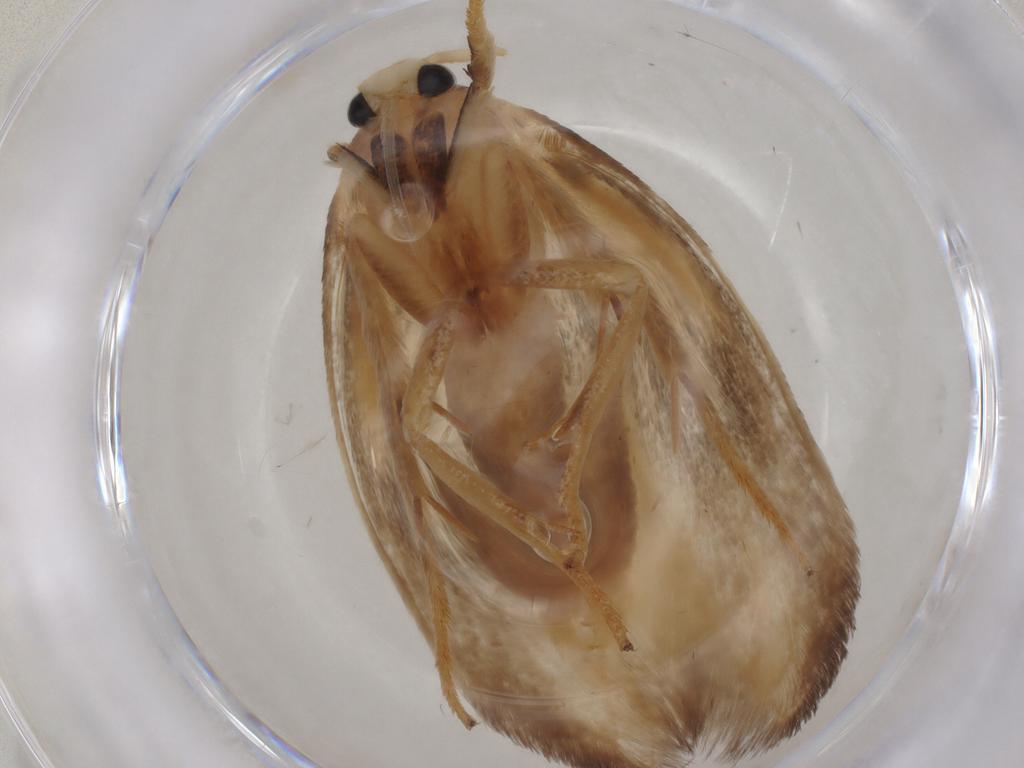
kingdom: Animalia
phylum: Arthropoda
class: Insecta
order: Lepidoptera
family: Geometridae
